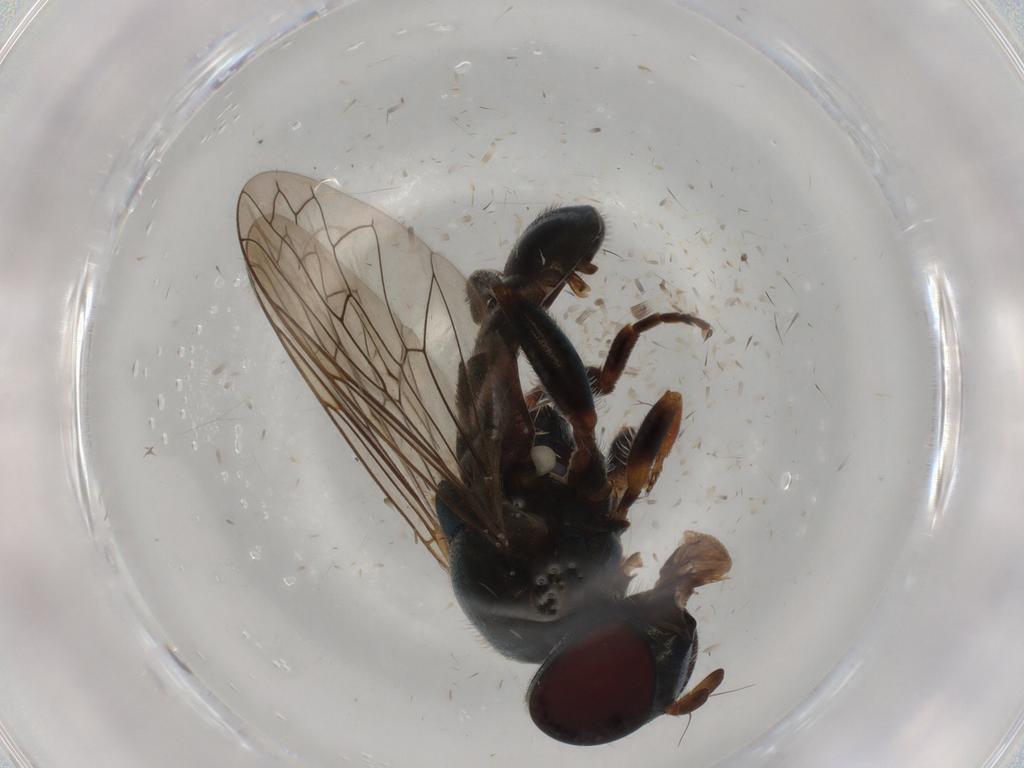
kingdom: Animalia
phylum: Arthropoda
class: Insecta
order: Diptera
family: Syrphidae
